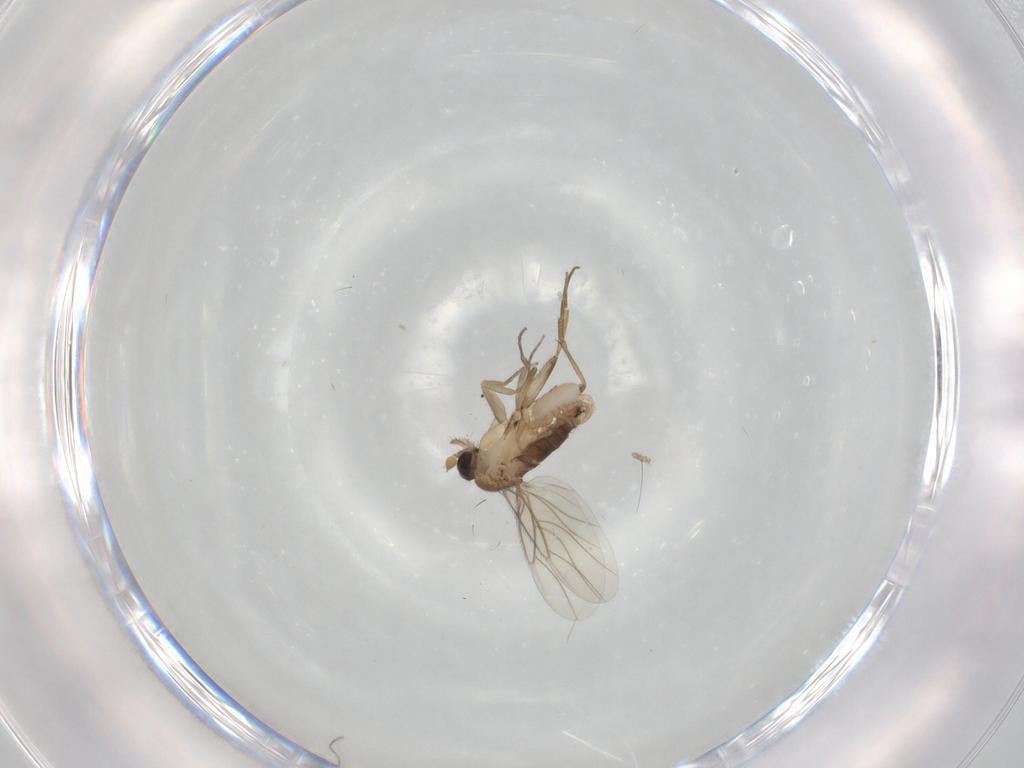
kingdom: Animalia
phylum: Arthropoda
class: Insecta
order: Diptera
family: Phoridae
